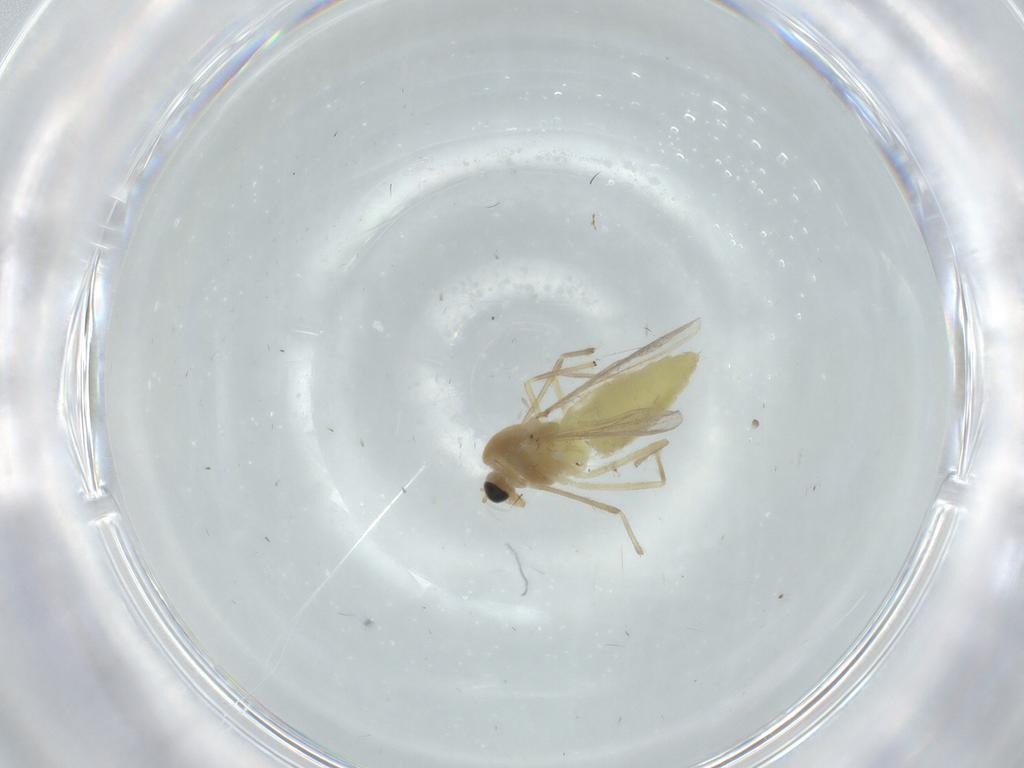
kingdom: Animalia
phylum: Arthropoda
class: Insecta
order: Diptera
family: Chironomidae
